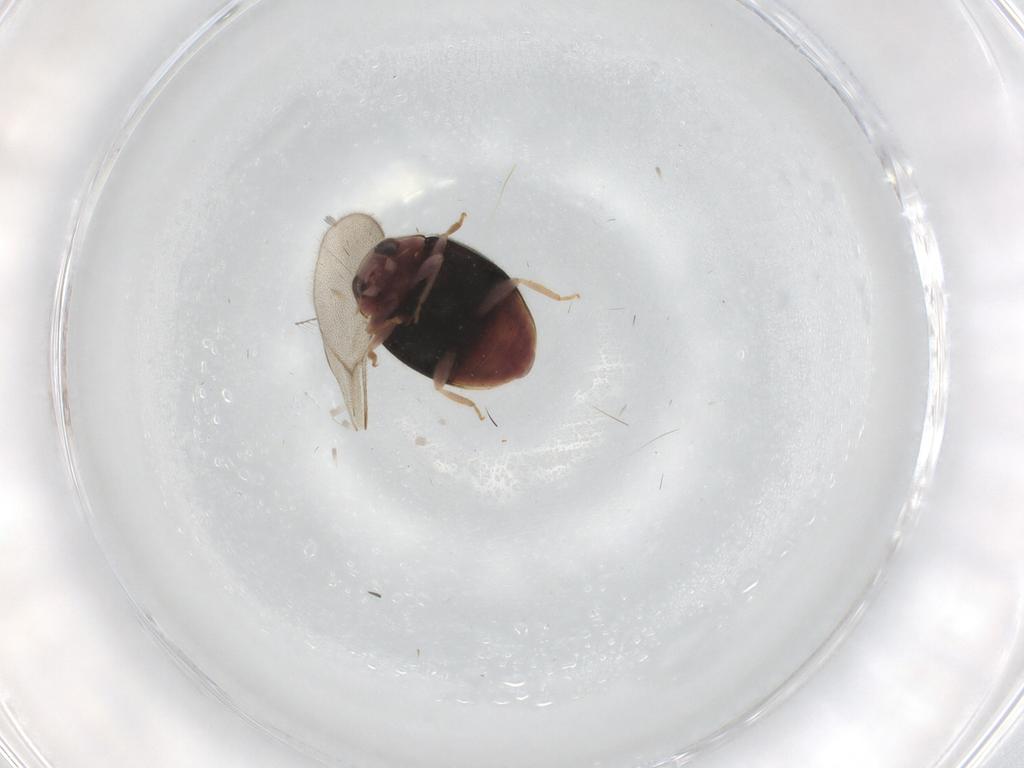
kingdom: Animalia
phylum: Arthropoda
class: Insecta
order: Coleoptera
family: Coccinellidae
